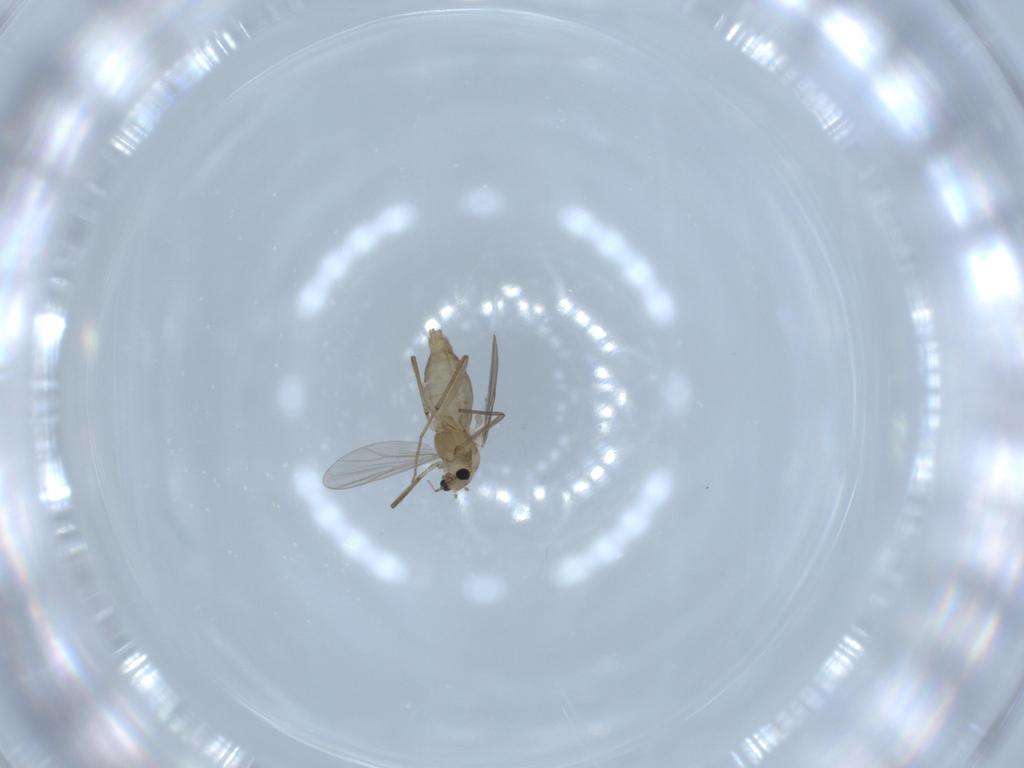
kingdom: Animalia
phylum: Arthropoda
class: Insecta
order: Diptera
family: Chironomidae
